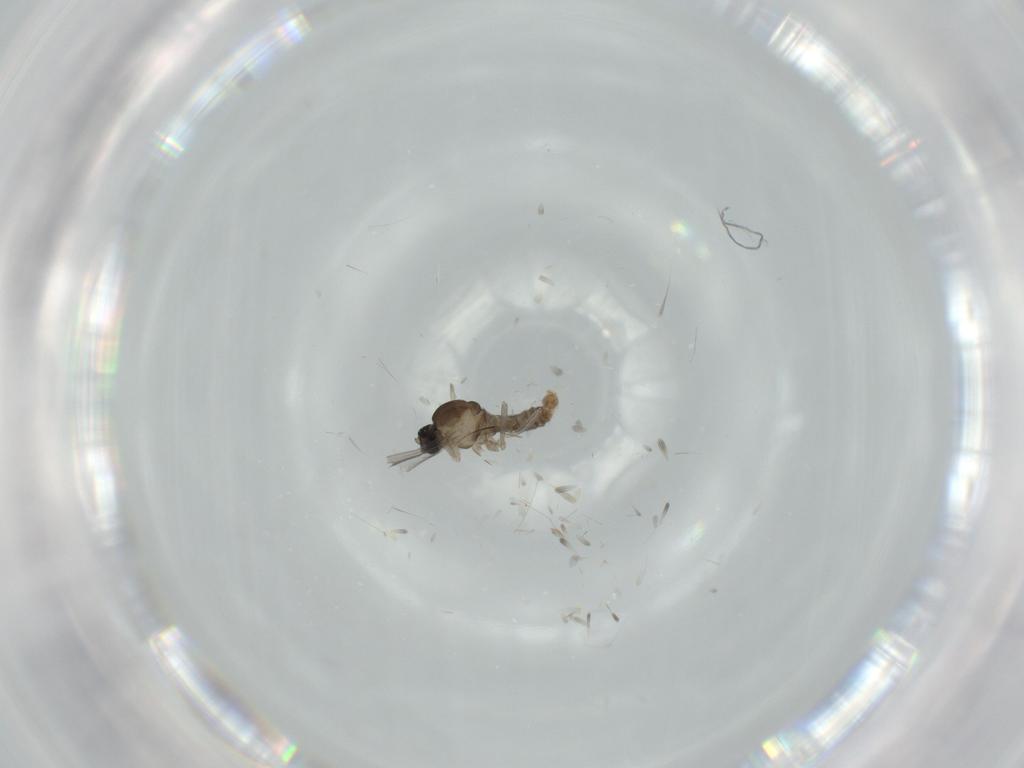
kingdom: Animalia
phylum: Arthropoda
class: Insecta
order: Diptera
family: Cecidomyiidae
